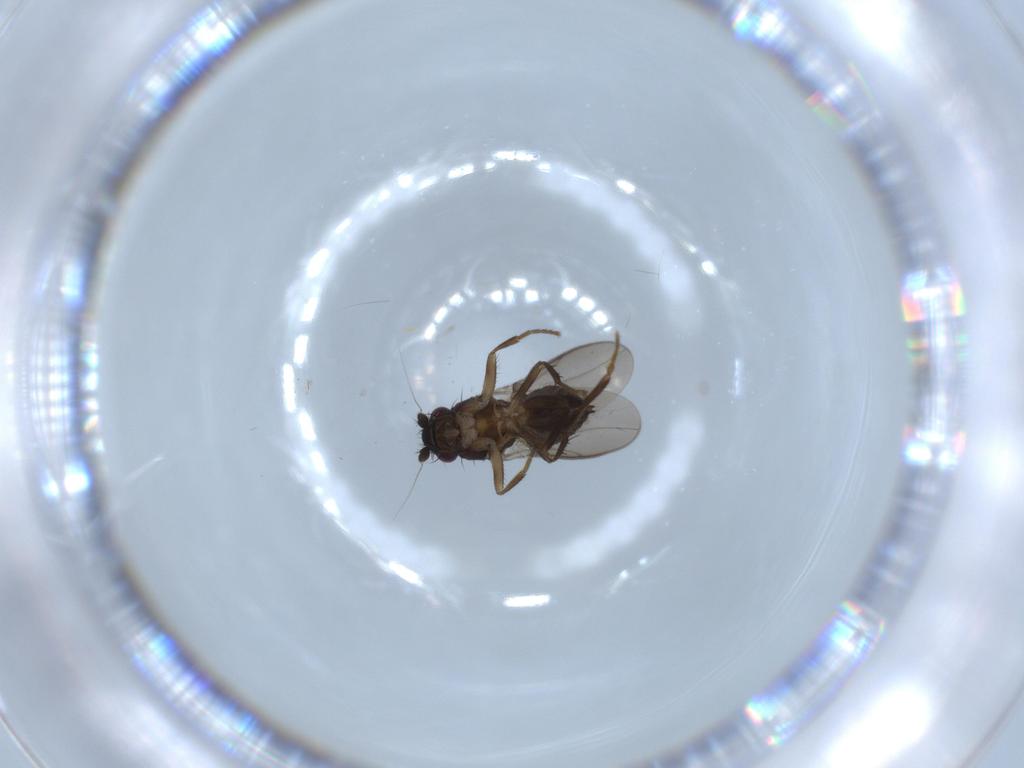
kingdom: Animalia
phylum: Arthropoda
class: Insecta
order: Diptera
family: Sphaeroceridae
